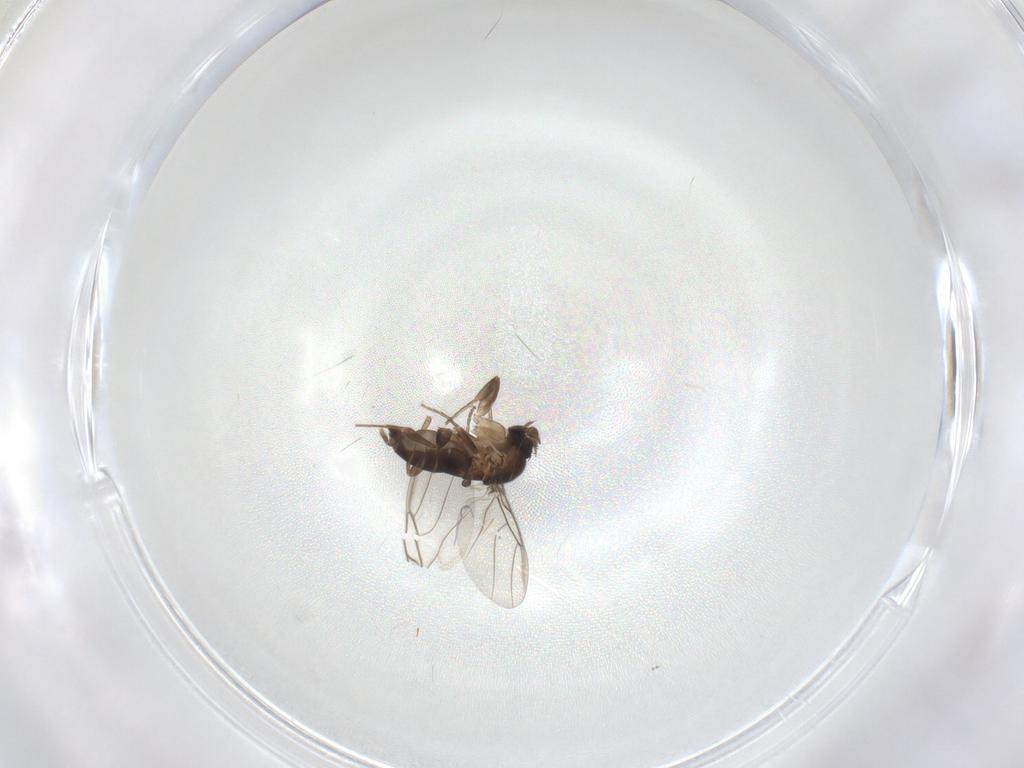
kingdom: Animalia
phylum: Arthropoda
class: Insecta
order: Diptera
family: Phoridae
